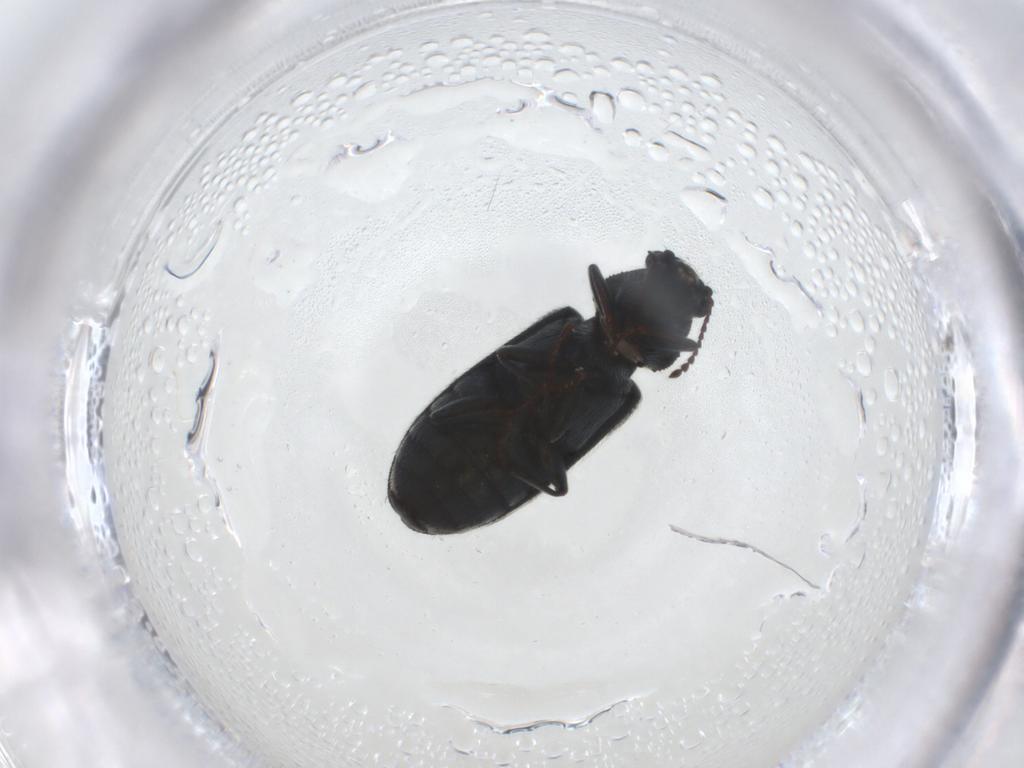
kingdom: Animalia
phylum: Arthropoda
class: Insecta
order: Coleoptera
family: Melyridae
